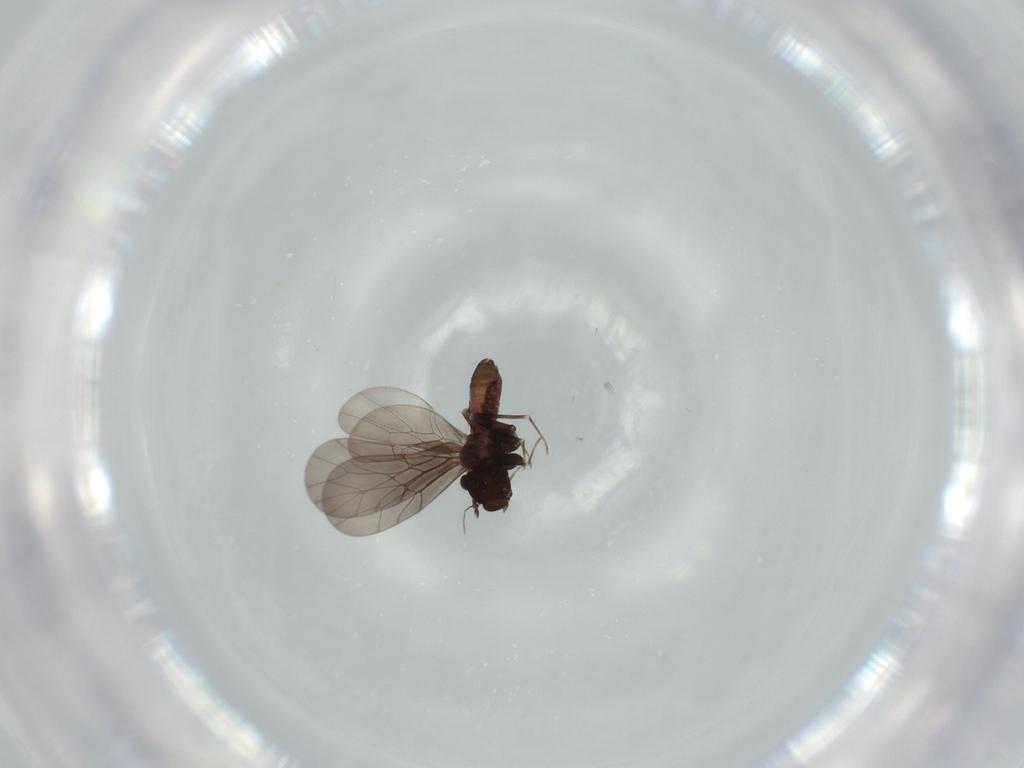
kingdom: Animalia
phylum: Arthropoda
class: Insecta
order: Psocodea
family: Lepidopsocidae
